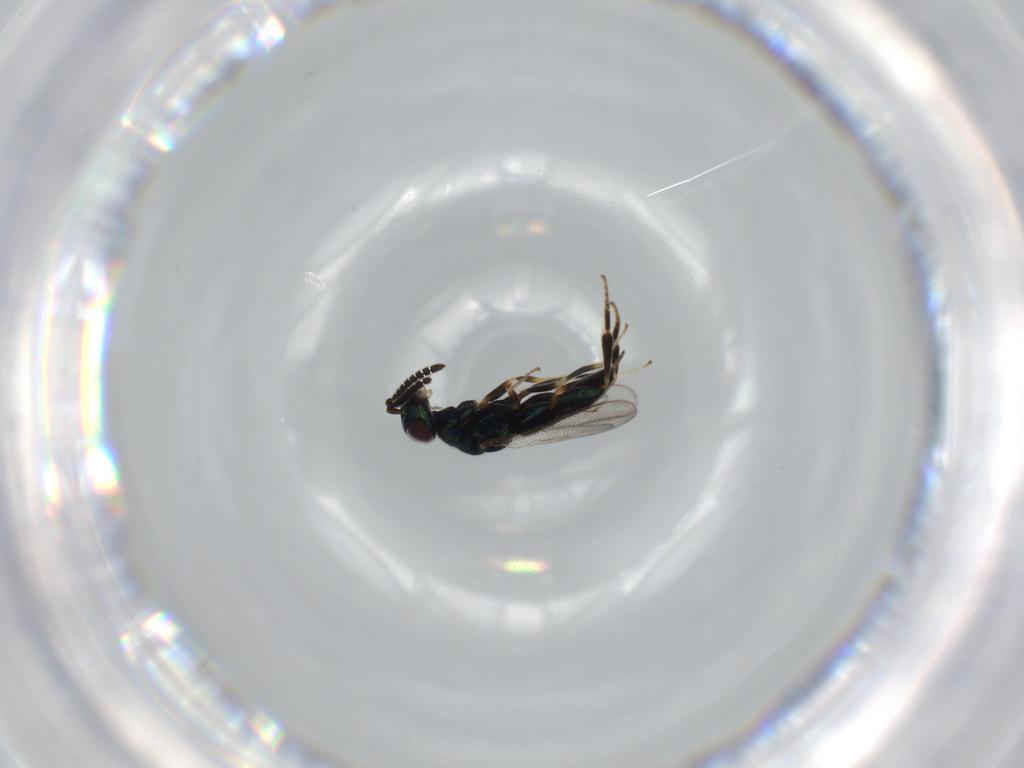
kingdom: Animalia
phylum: Arthropoda
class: Insecta
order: Hymenoptera
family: Cleonyminae
